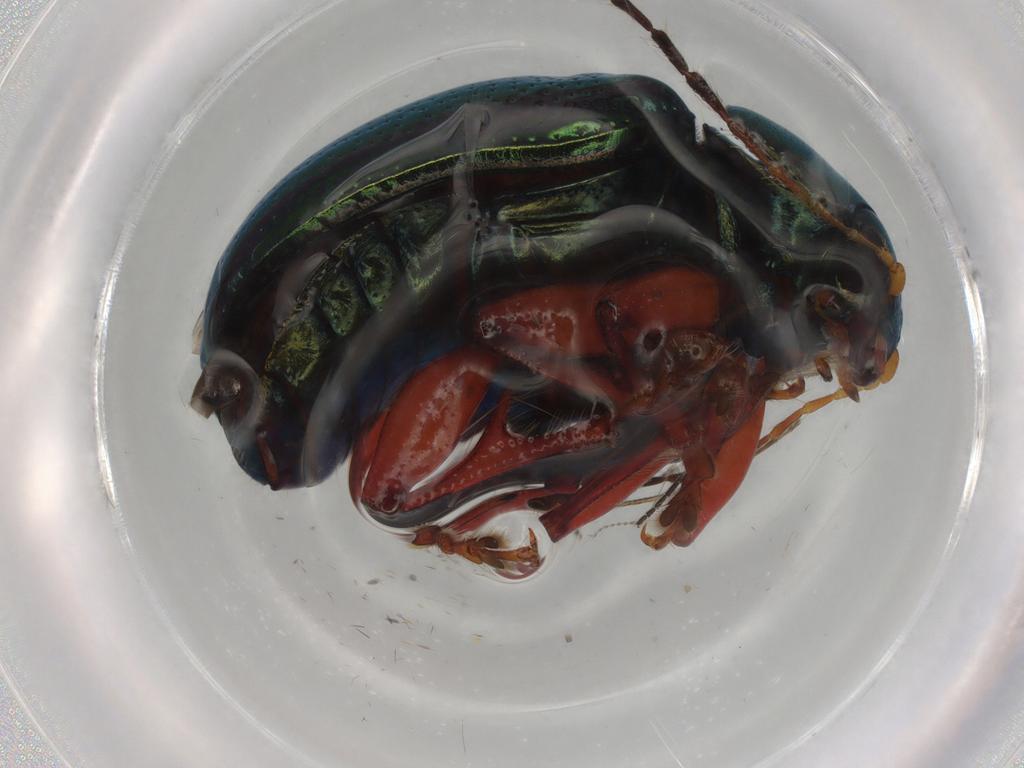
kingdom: Animalia
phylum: Arthropoda
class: Insecta
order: Coleoptera
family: Chrysomelidae
